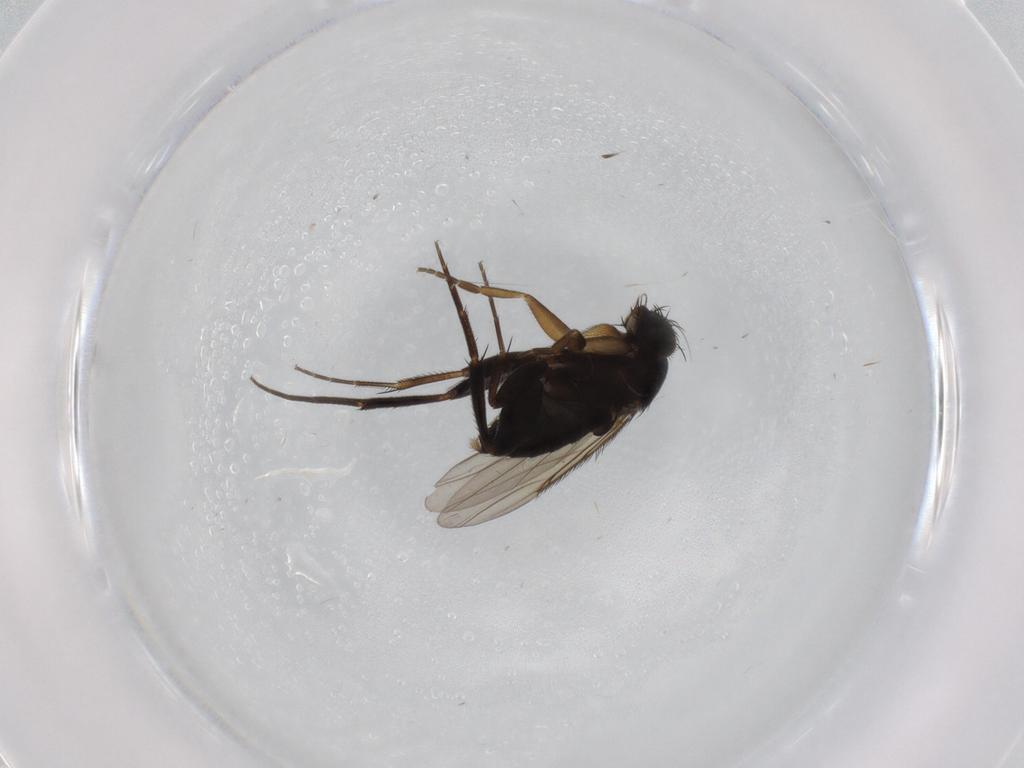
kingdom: Animalia
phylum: Arthropoda
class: Insecta
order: Diptera
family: Phoridae
